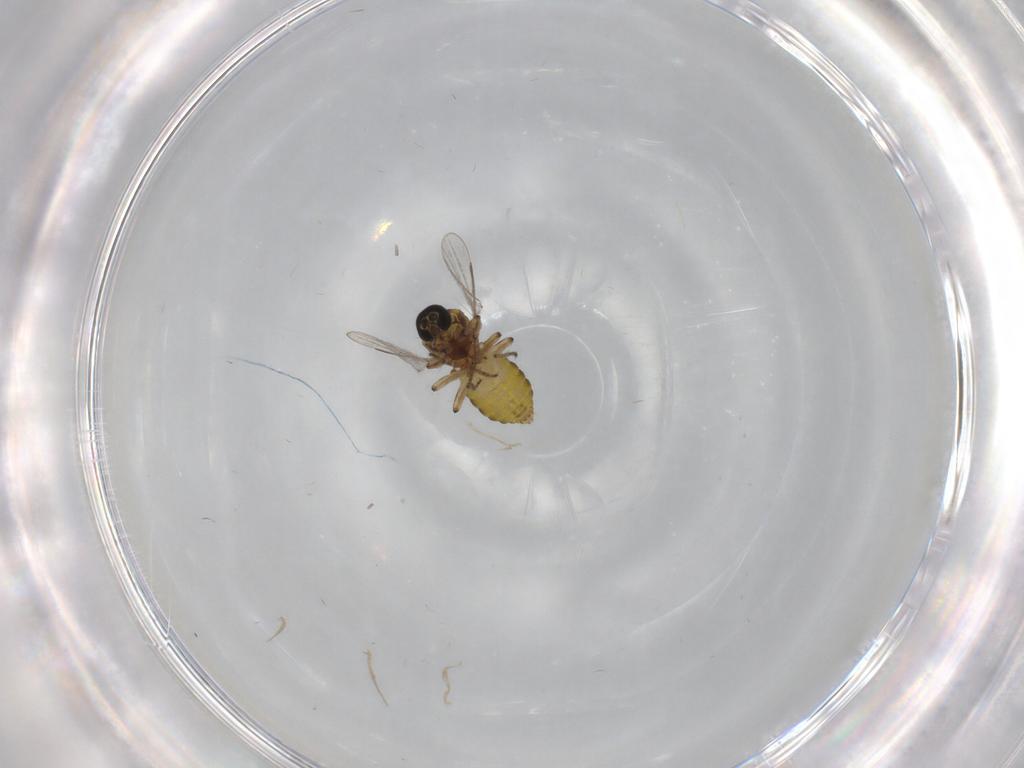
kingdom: Animalia
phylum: Arthropoda
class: Insecta
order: Diptera
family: Ceratopogonidae
